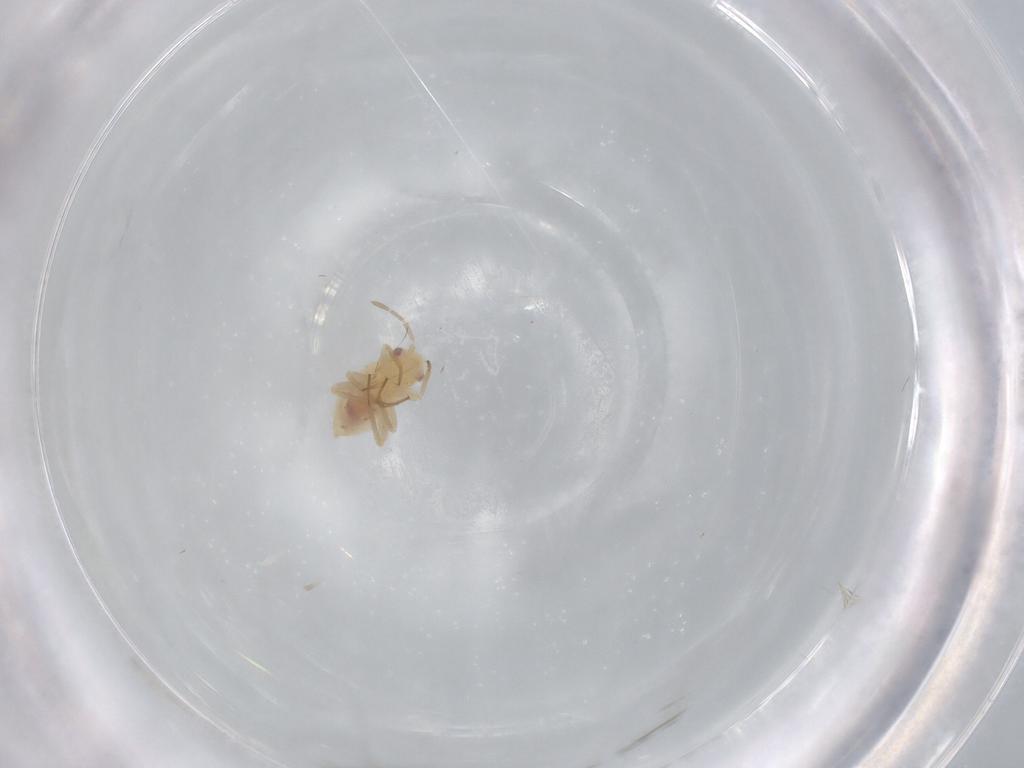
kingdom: Animalia
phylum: Arthropoda
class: Insecta
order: Hemiptera
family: Miridae
